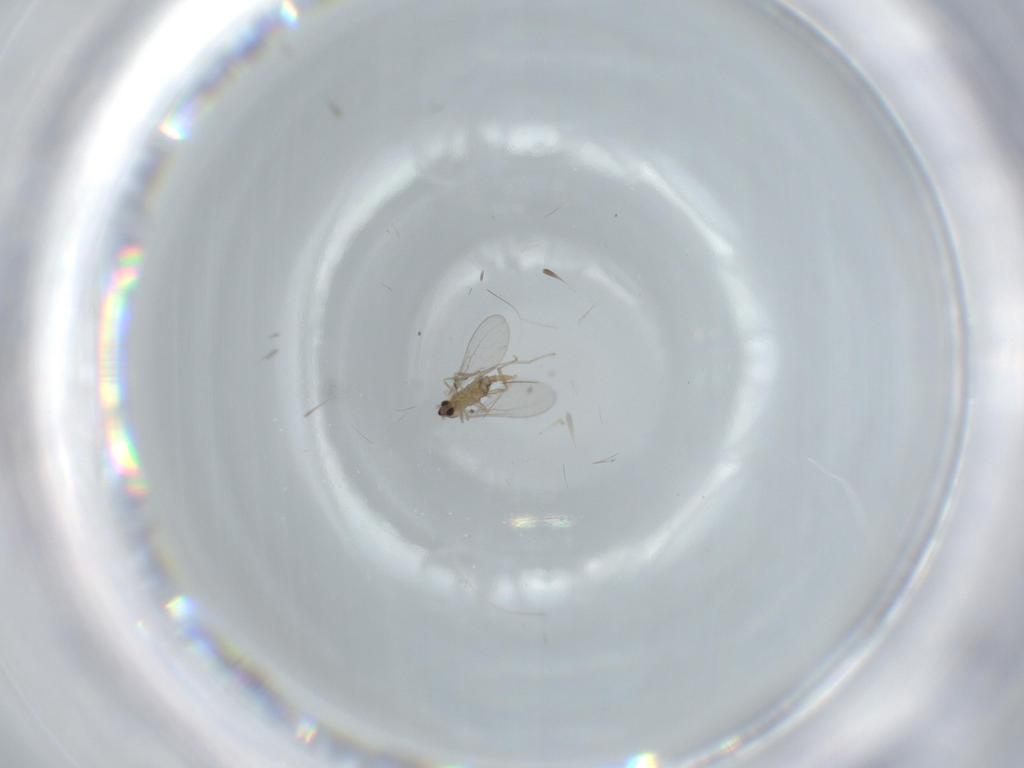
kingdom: Animalia
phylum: Arthropoda
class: Insecta
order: Diptera
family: Cecidomyiidae
